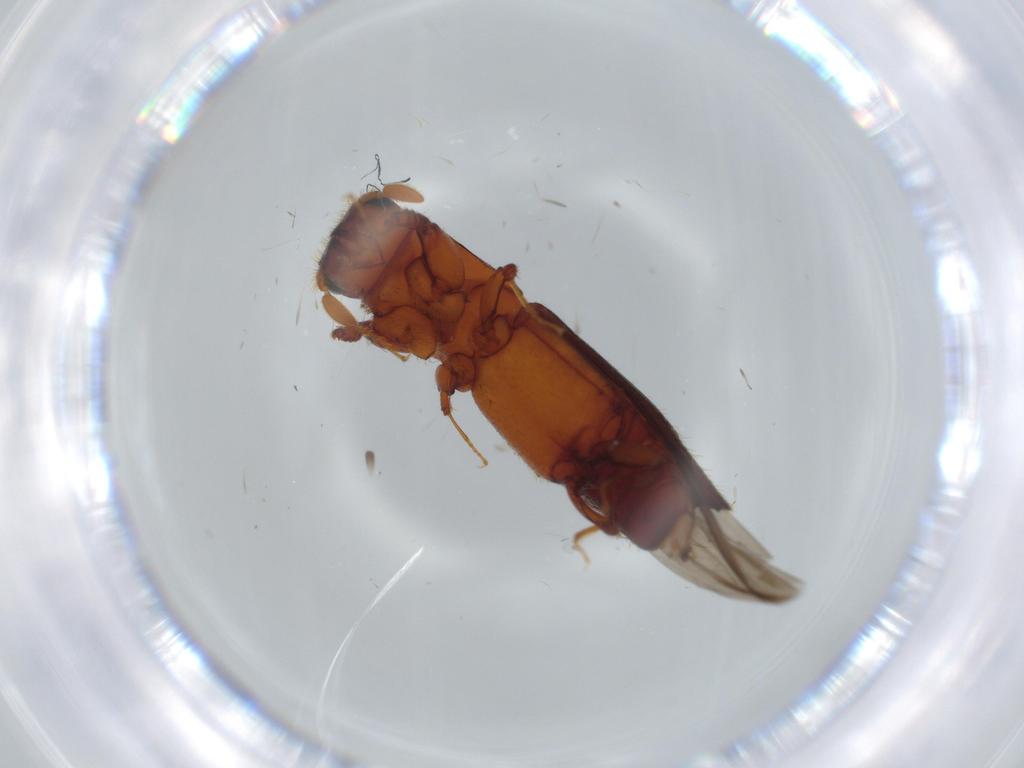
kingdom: Animalia
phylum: Arthropoda
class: Insecta
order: Coleoptera
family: Curculionidae
